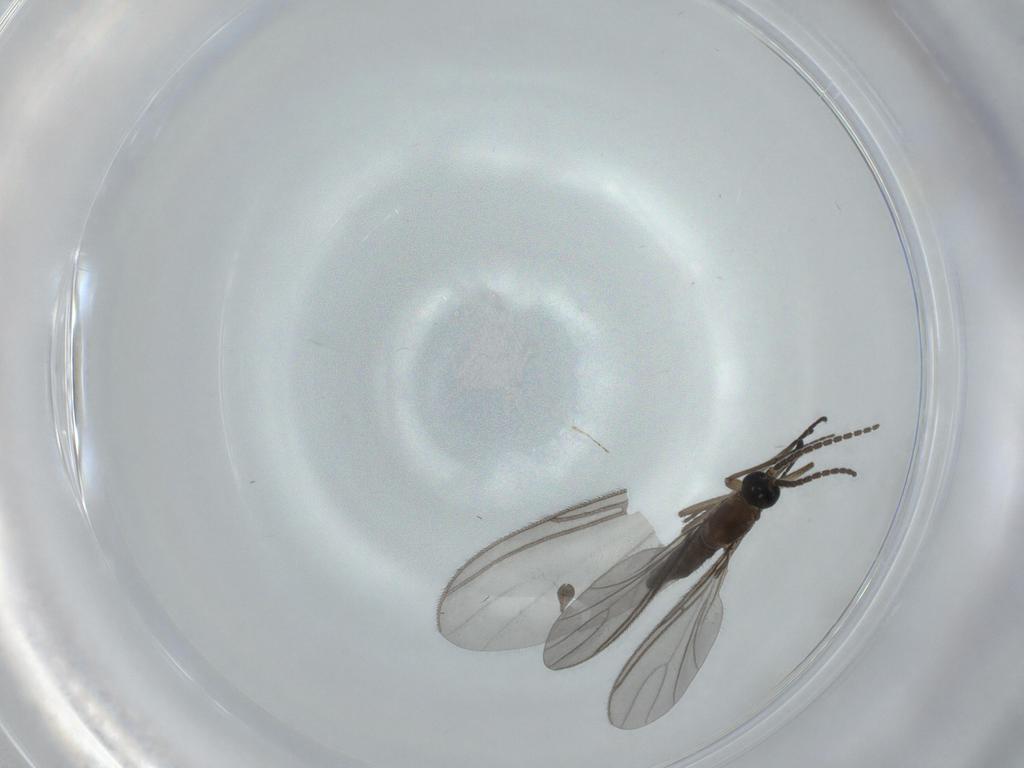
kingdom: Animalia
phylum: Arthropoda
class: Insecta
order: Diptera
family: Sciaridae
